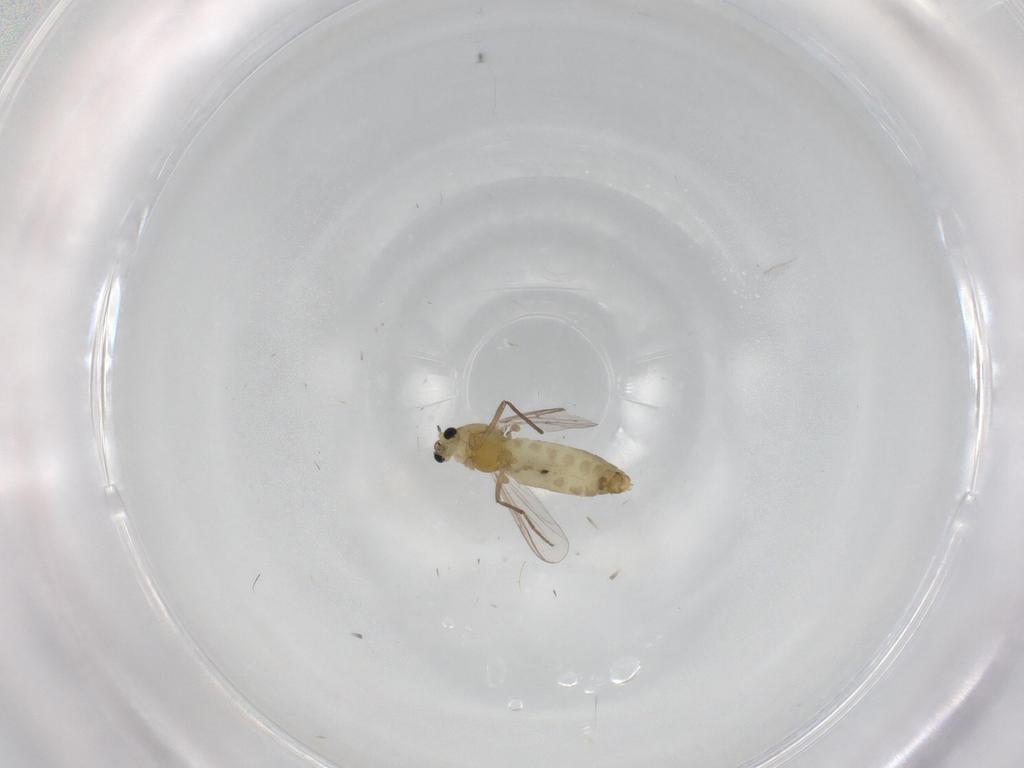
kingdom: Animalia
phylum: Arthropoda
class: Insecta
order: Diptera
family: Chironomidae
